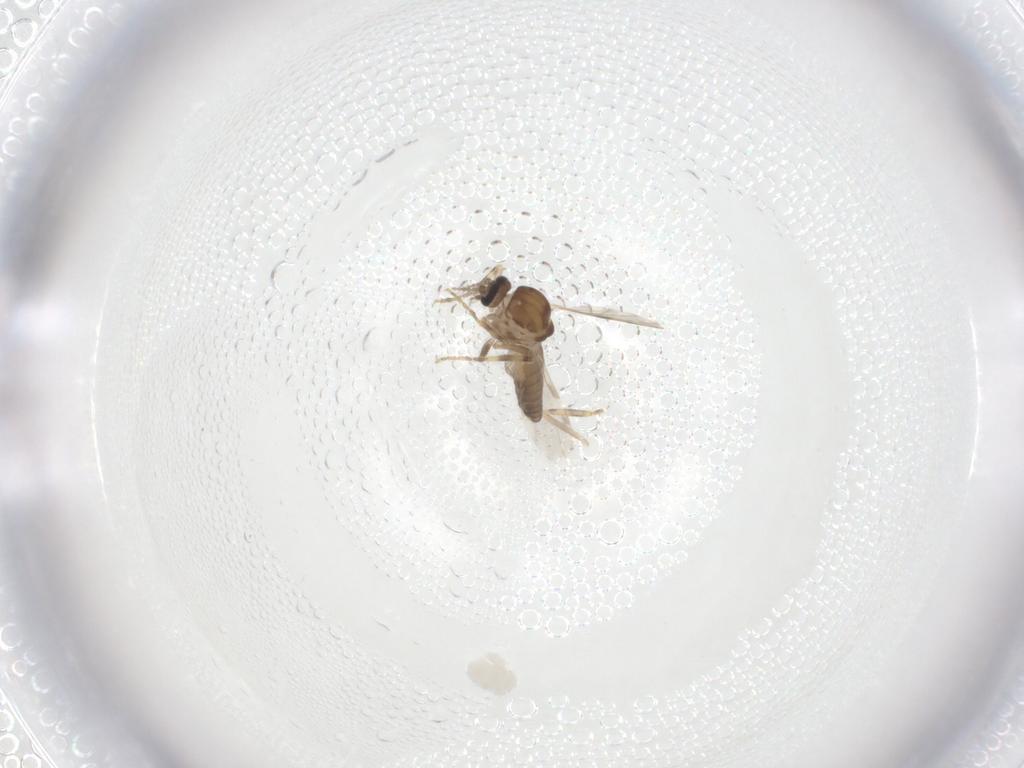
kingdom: Animalia
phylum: Arthropoda
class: Insecta
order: Diptera
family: Ceratopogonidae
